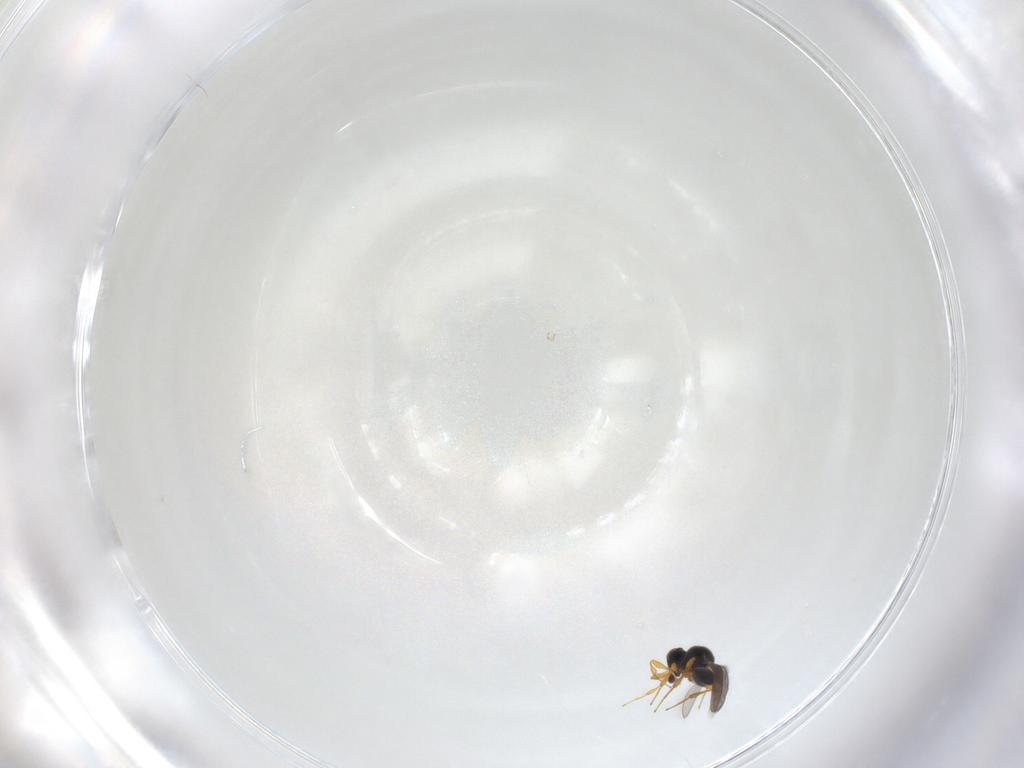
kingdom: Animalia
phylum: Arthropoda
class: Insecta
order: Hymenoptera
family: Platygastridae
